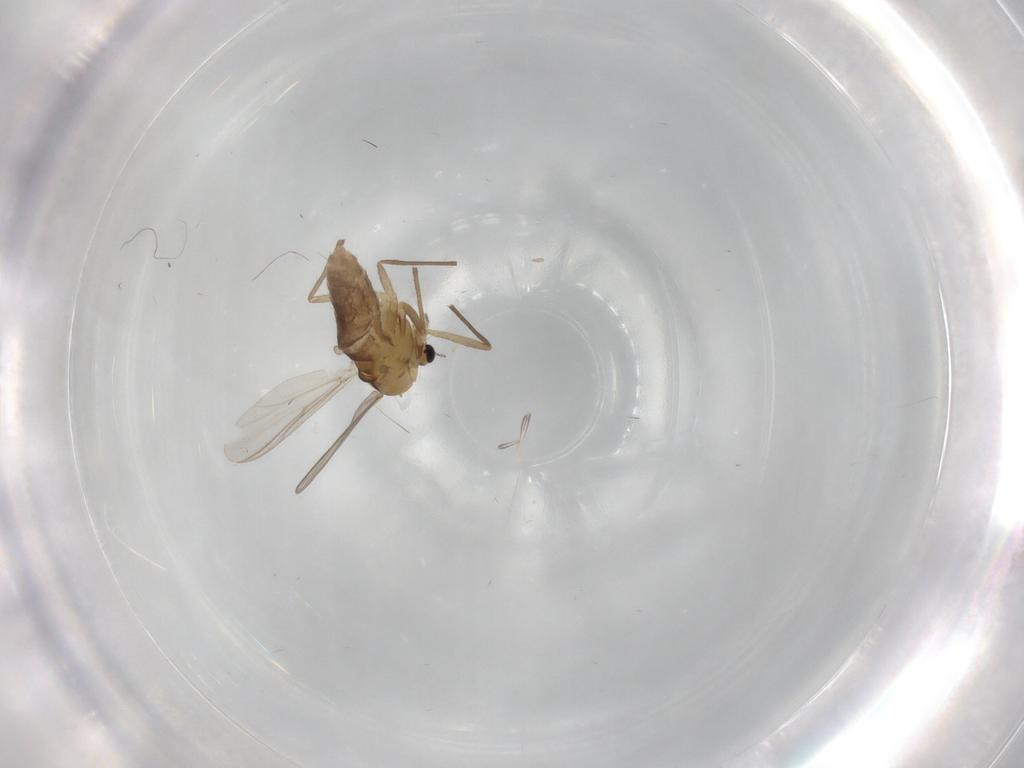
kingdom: Animalia
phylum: Arthropoda
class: Insecta
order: Diptera
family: Chironomidae
